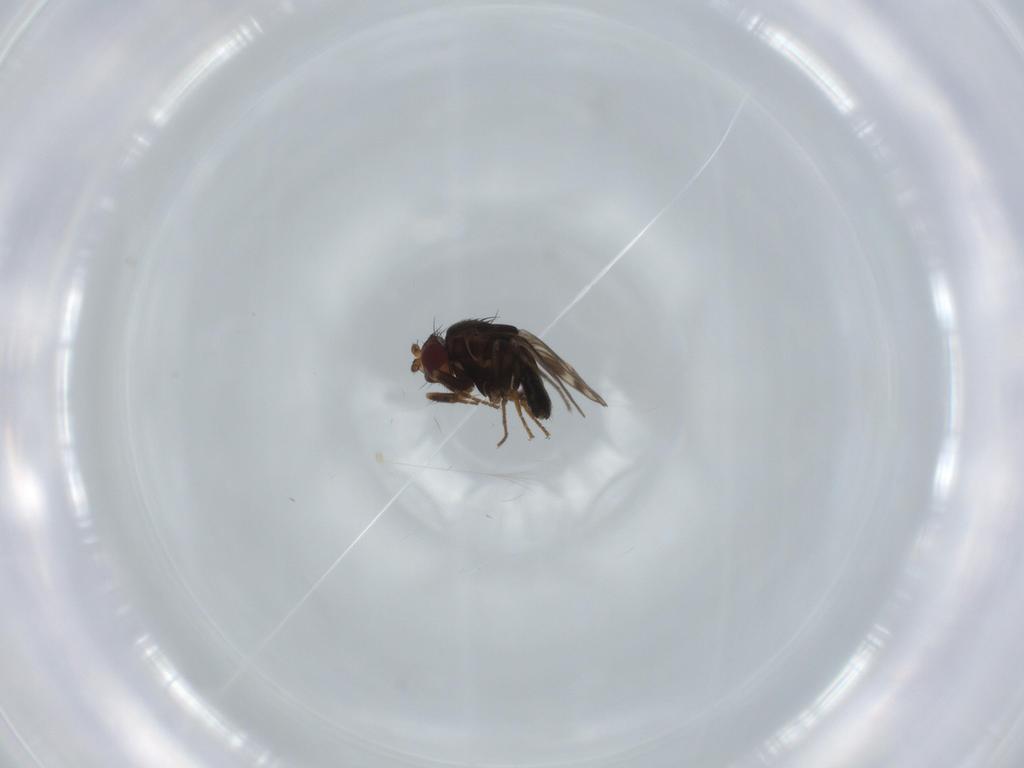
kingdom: Animalia
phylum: Arthropoda
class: Insecta
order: Diptera
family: Sphaeroceridae
